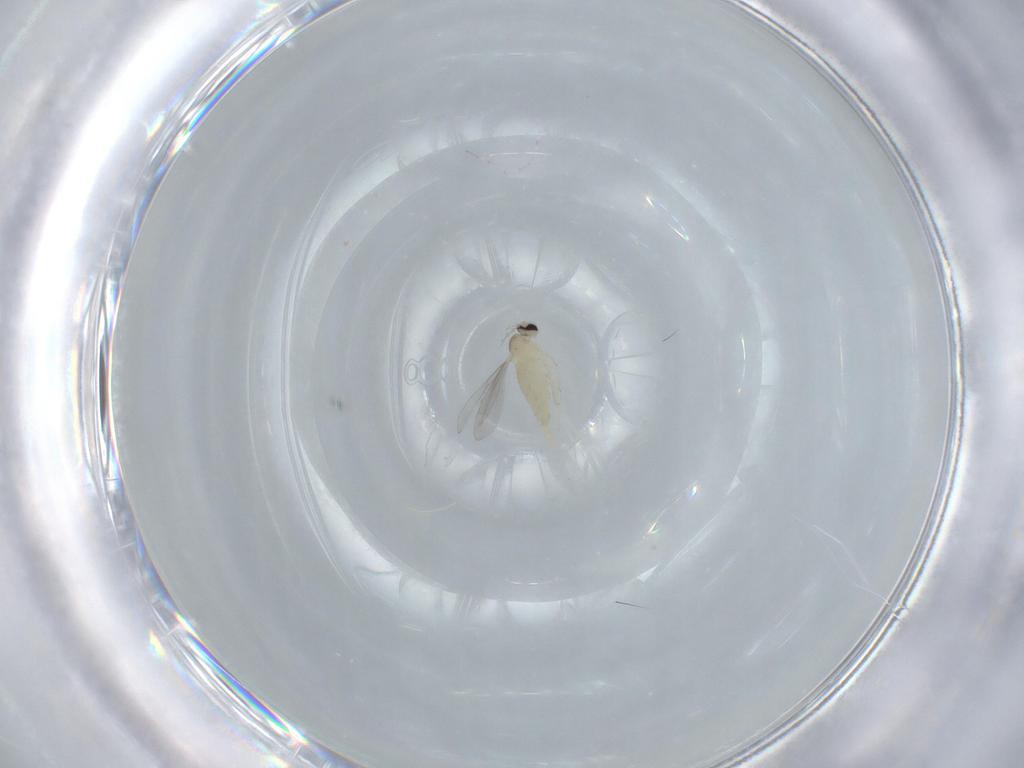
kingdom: Animalia
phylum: Arthropoda
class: Insecta
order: Diptera
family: Cecidomyiidae
